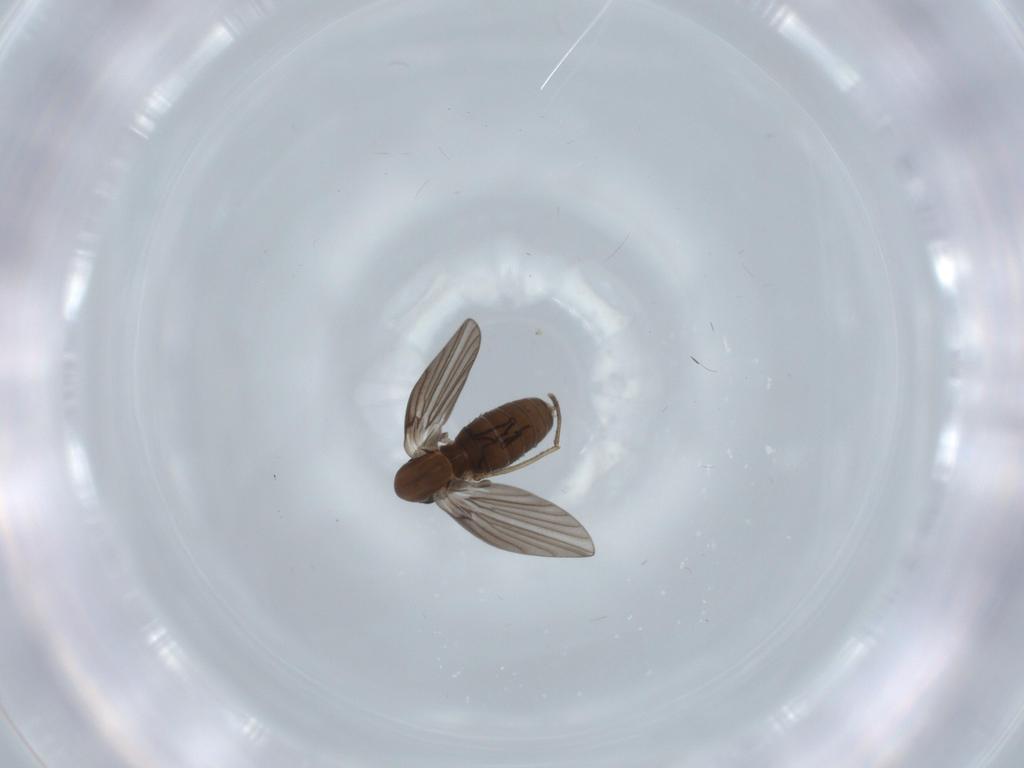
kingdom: Animalia
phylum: Arthropoda
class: Insecta
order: Diptera
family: Psychodidae
